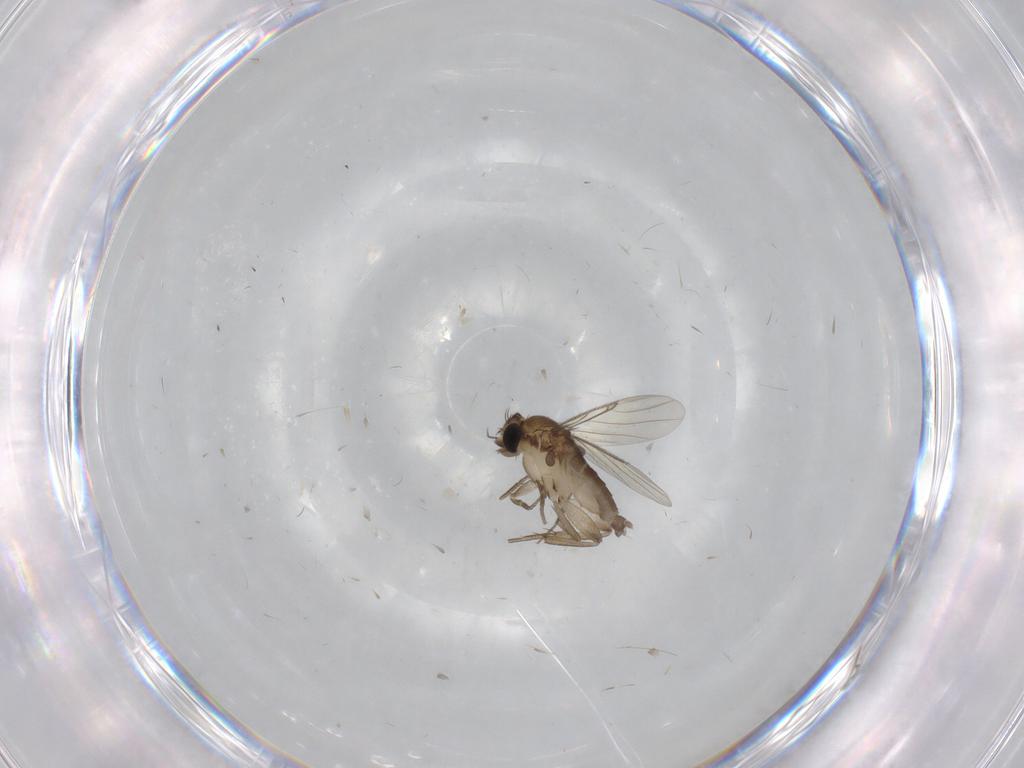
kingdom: Animalia
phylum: Arthropoda
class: Insecta
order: Diptera
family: Cecidomyiidae
